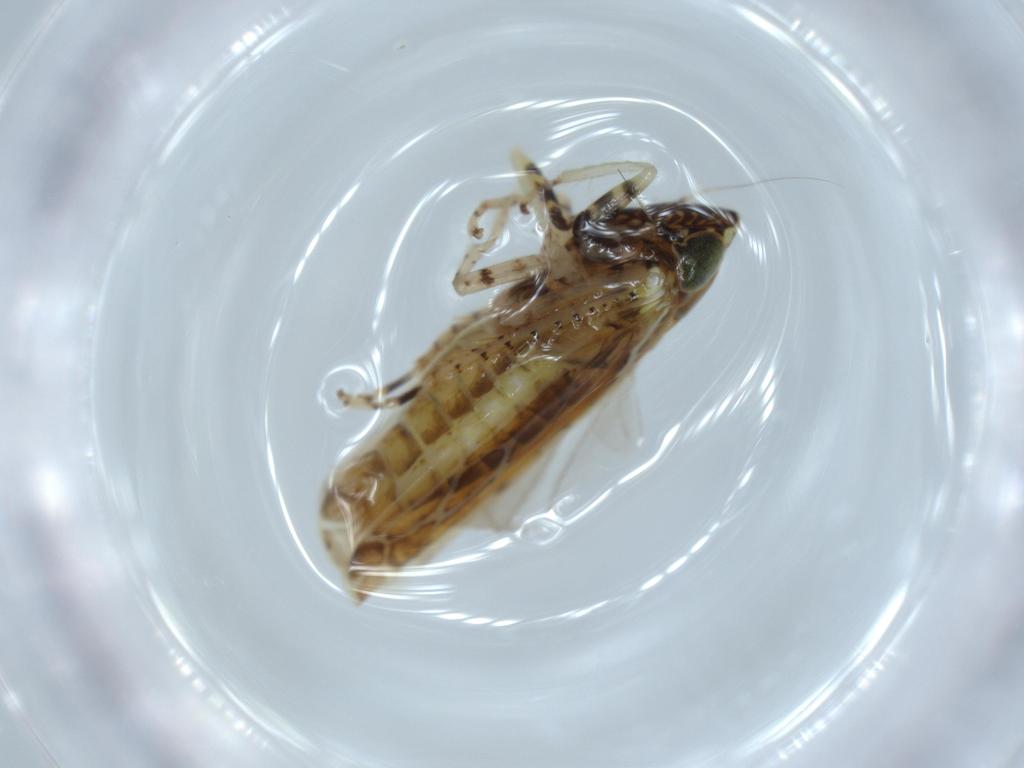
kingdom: Animalia
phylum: Arthropoda
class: Insecta
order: Hemiptera
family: Cicadellidae
